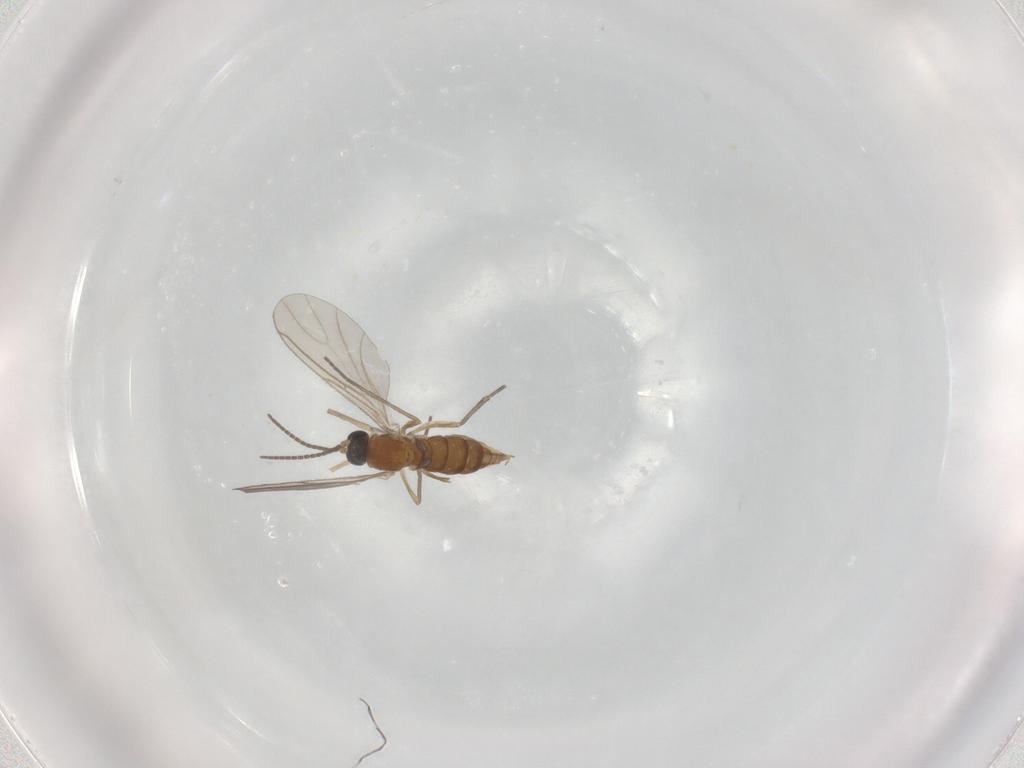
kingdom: Animalia
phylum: Arthropoda
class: Insecta
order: Diptera
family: Sciaridae
